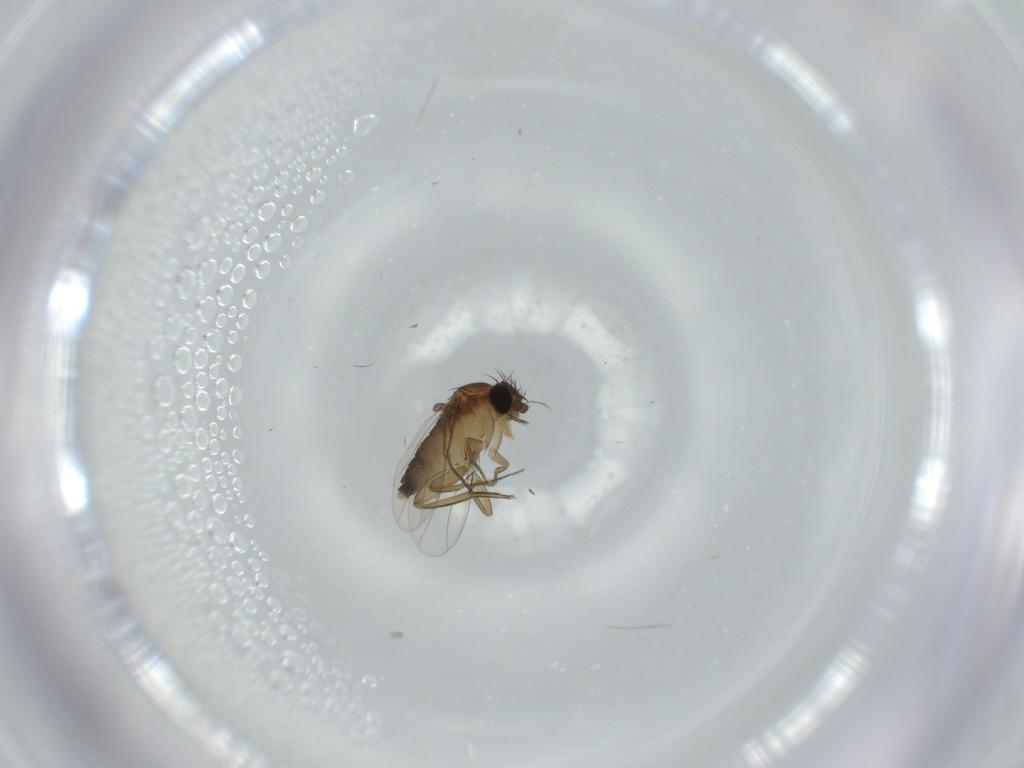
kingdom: Animalia
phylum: Arthropoda
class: Insecta
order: Diptera
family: Phoridae
